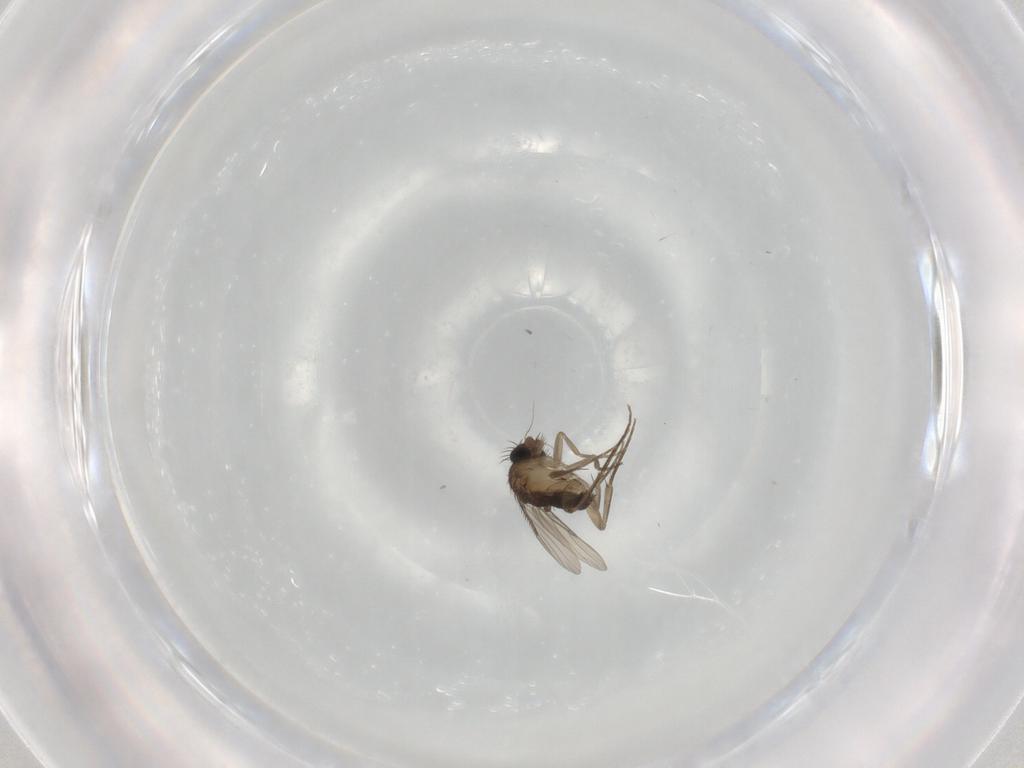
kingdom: Animalia
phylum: Arthropoda
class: Insecta
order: Diptera
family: Phoridae
